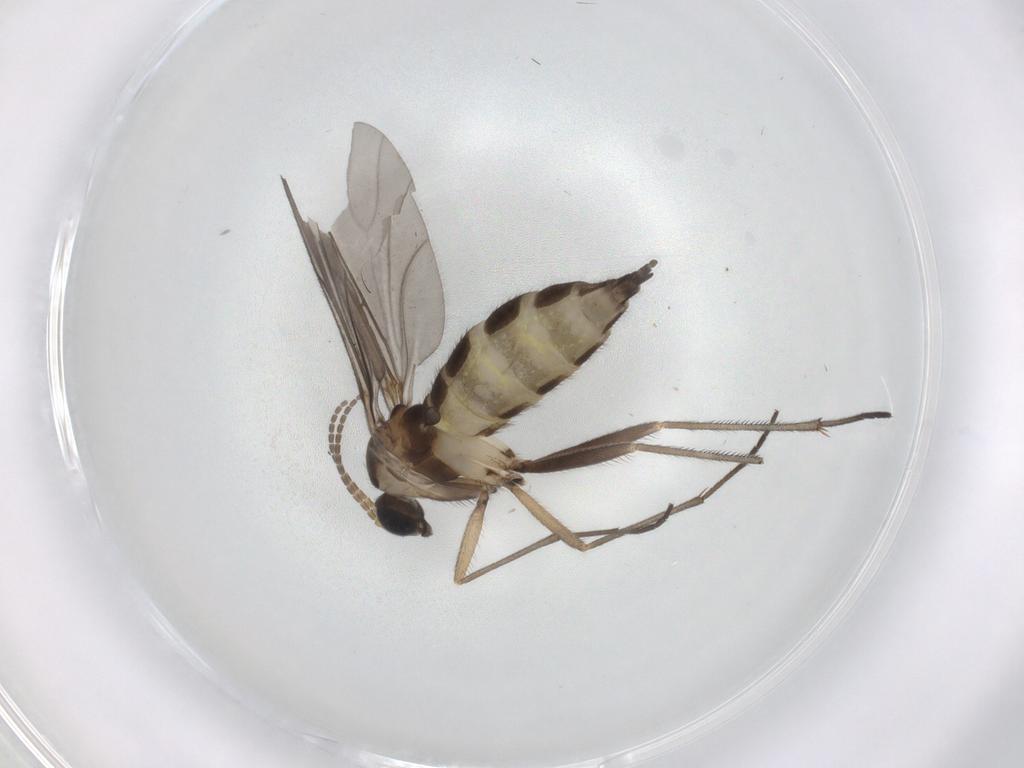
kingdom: Animalia
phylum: Arthropoda
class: Insecta
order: Diptera
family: Sciaridae
